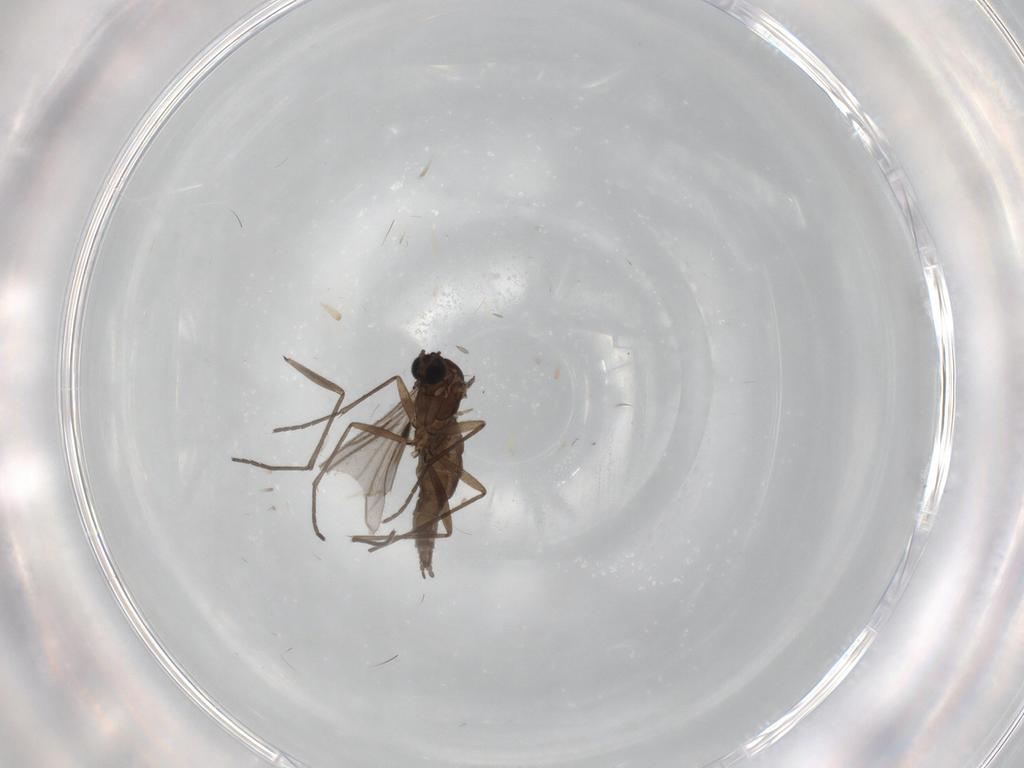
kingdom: Animalia
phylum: Arthropoda
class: Insecta
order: Diptera
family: Sciaridae
